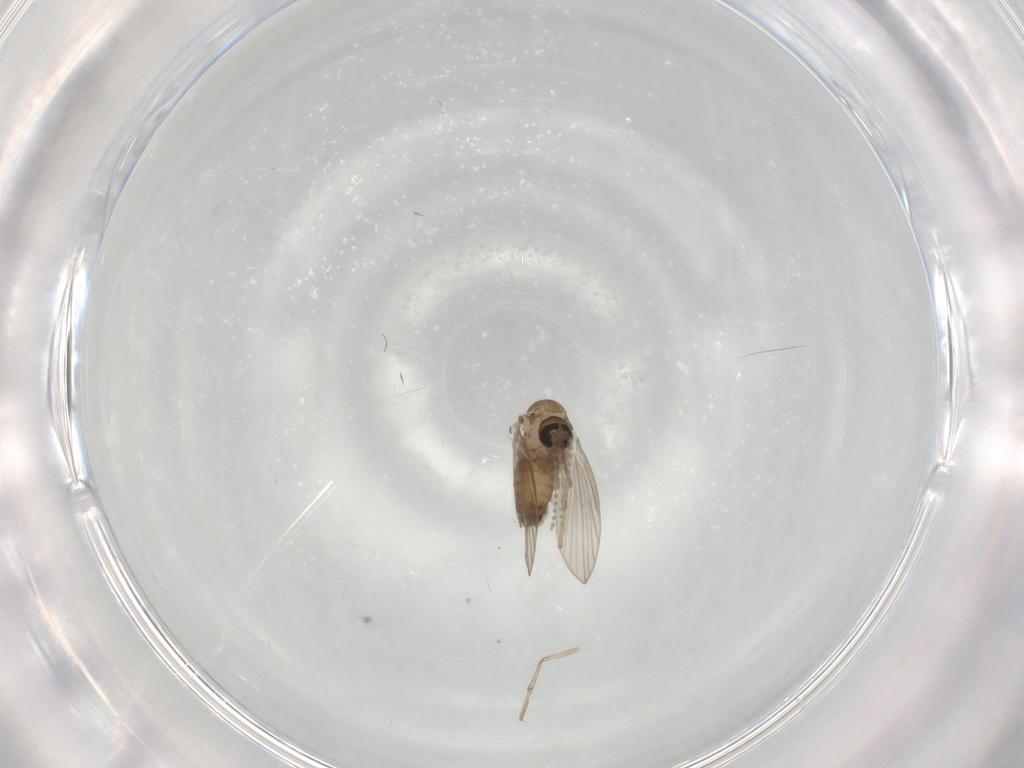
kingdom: Animalia
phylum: Arthropoda
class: Insecta
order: Diptera
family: Psychodidae
